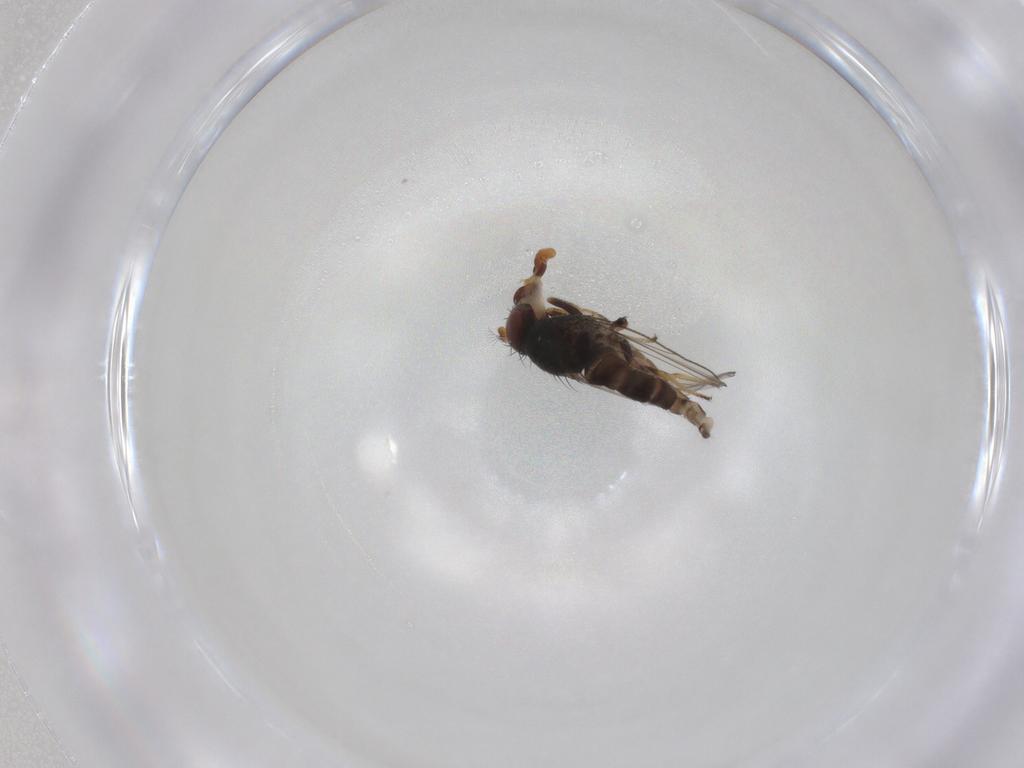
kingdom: Animalia
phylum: Arthropoda
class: Insecta
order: Diptera
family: Ephydridae
